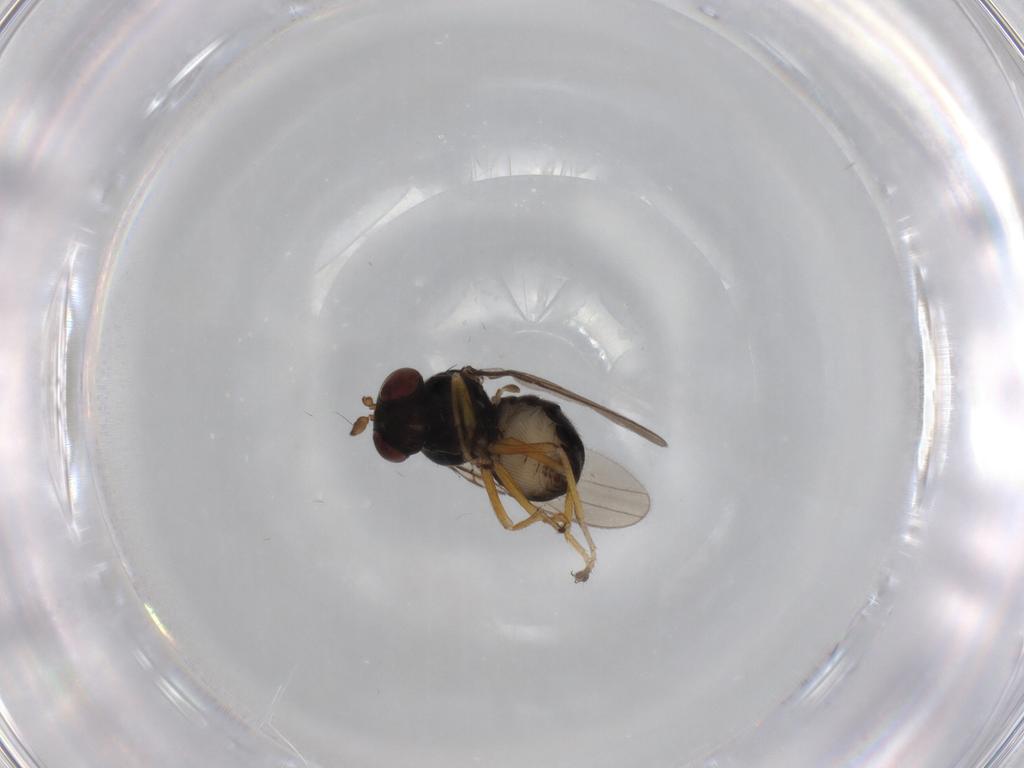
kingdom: Animalia
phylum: Arthropoda
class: Insecta
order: Diptera
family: Ephydridae
